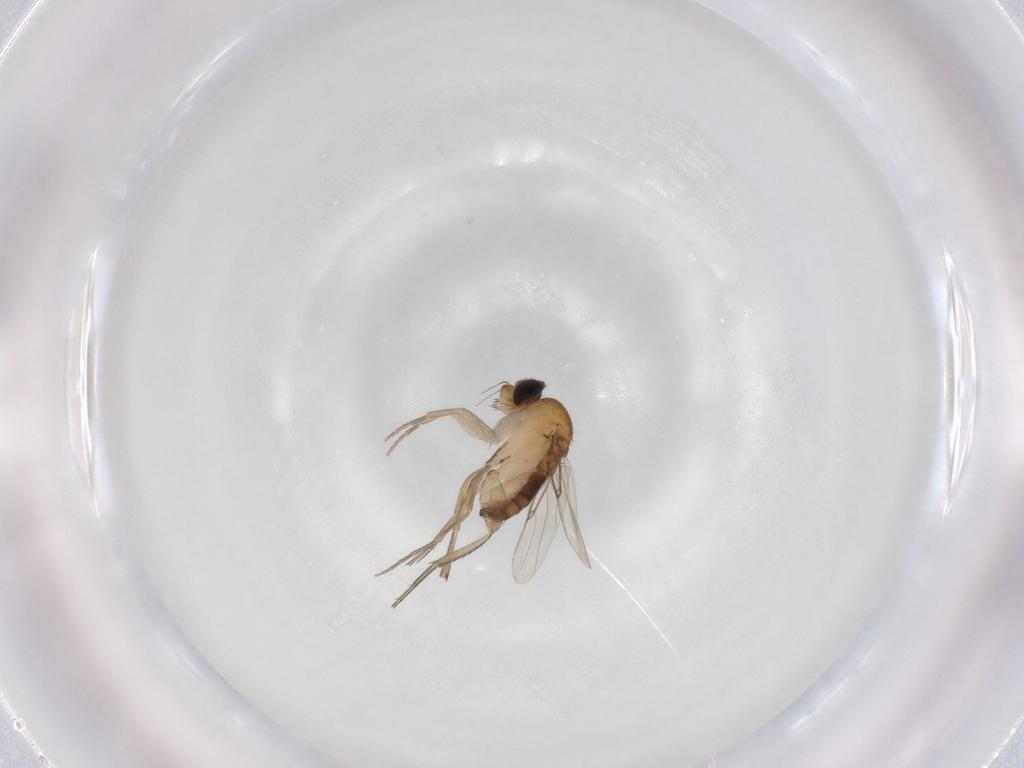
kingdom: Animalia
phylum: Arthropoda
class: Insecta
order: Diptera
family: Phoridae
